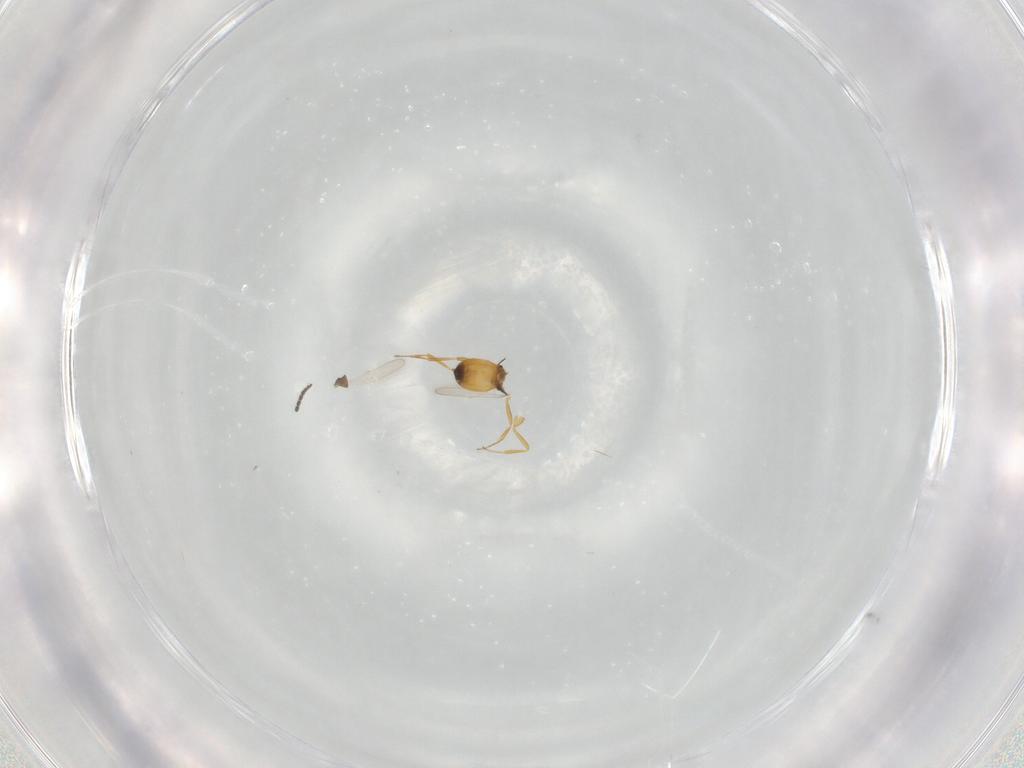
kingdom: Animalia
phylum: Arthropoda
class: Insecta
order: Hymenoptera
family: Scelionidae
